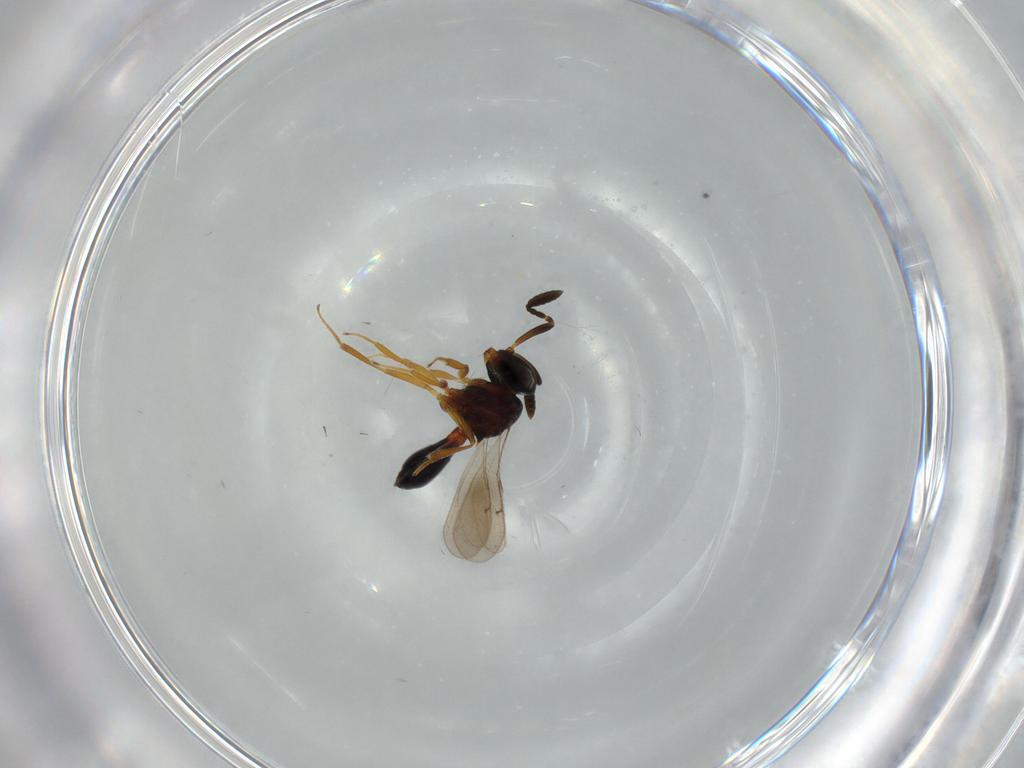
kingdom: Animalia
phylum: Arthropoda
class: Insecta
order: Hymenoptera
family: Scelionidae
